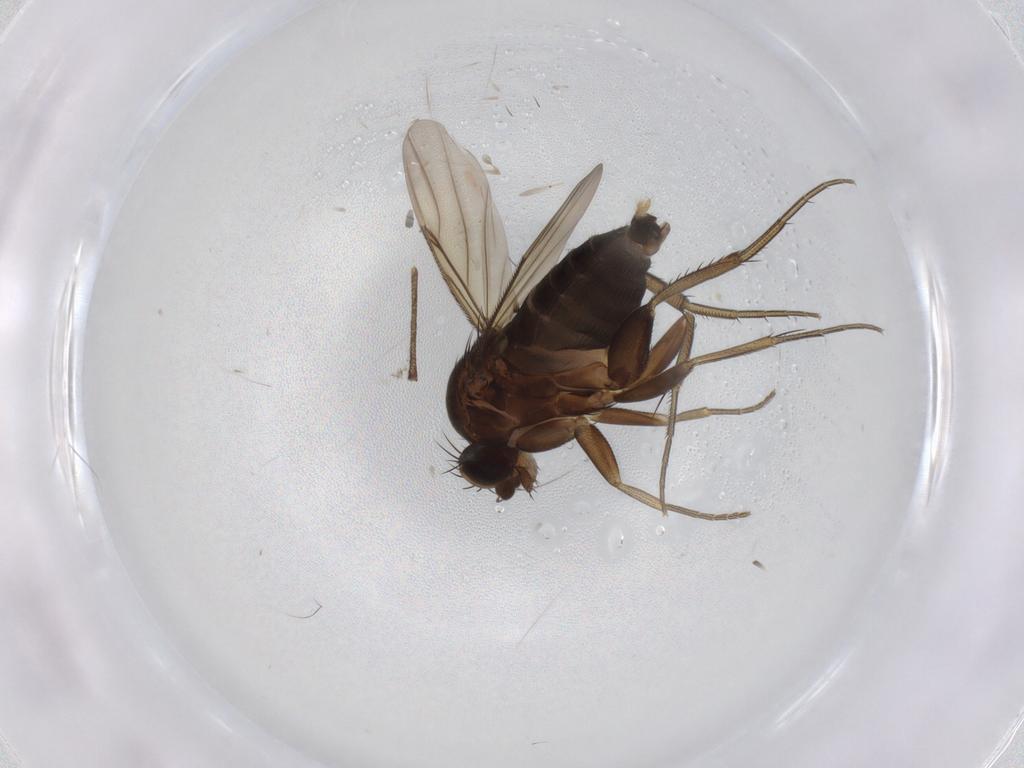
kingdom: Animalia
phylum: Arthropoda
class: Insecta
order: Diptera
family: Phoridae
